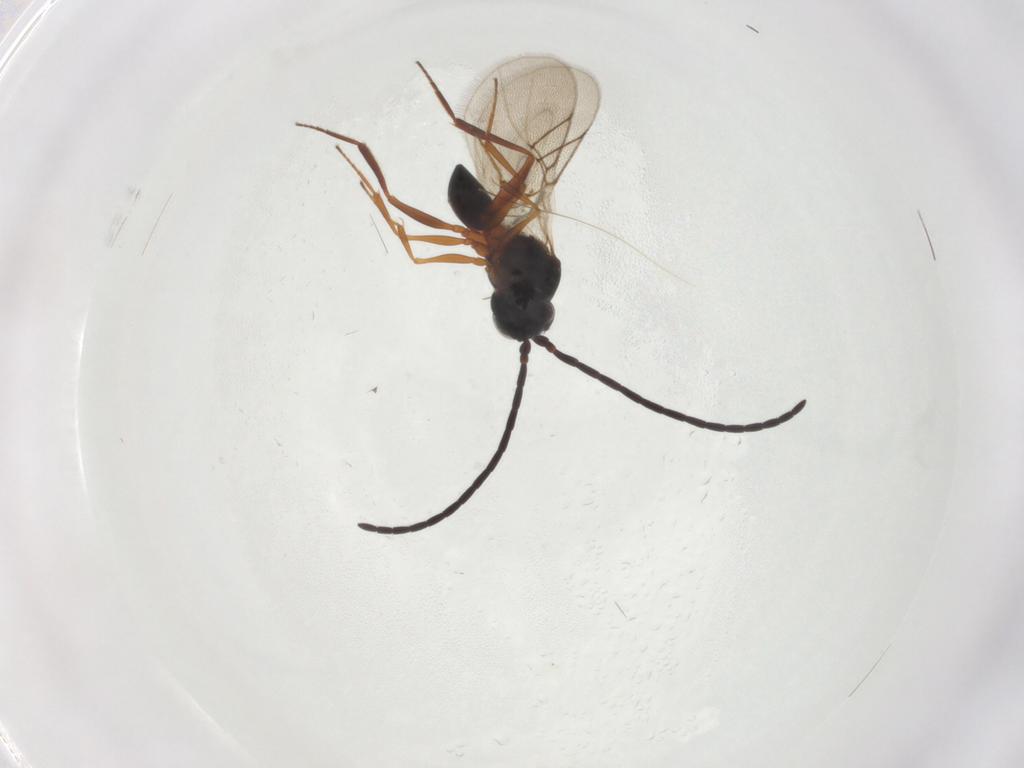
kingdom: Animalia
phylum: Arthropoda
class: Insecta
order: Hymenoptera
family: Figitidae
